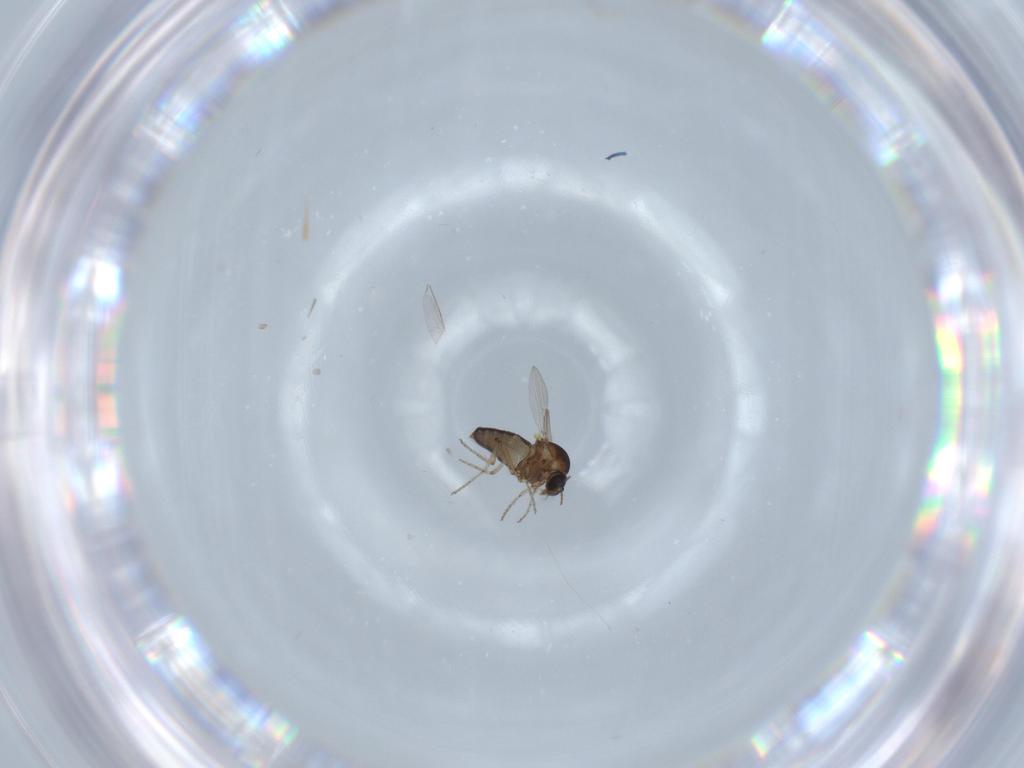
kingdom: Animalia
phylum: Arthropoda
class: Insecta
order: Diptera
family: Ceratopogonidae
